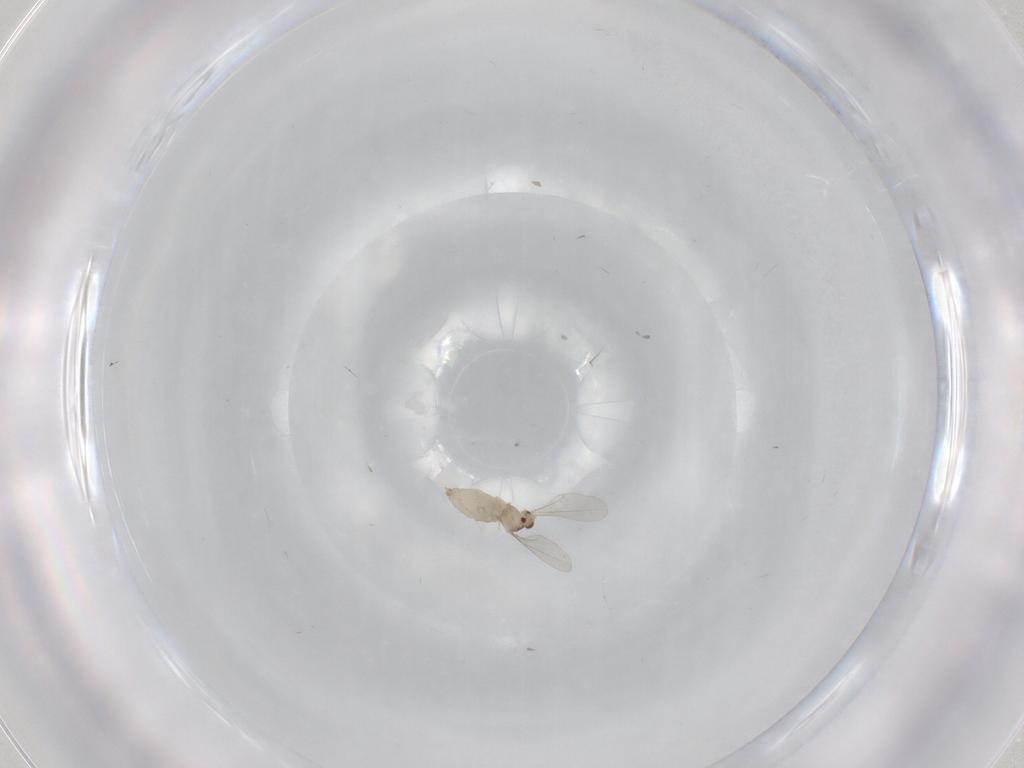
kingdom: Animalia
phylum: Arthropoda
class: Insecta
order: Diptera
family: Cecidomyiidae
